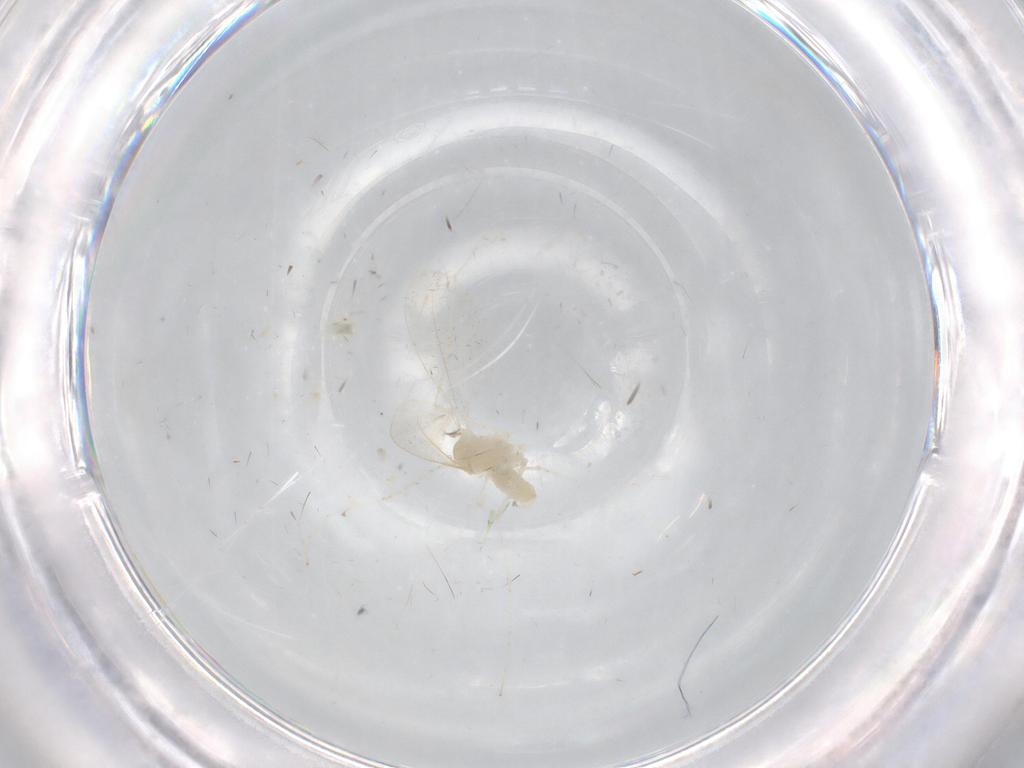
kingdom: Animalia
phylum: Arthropoda
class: Insecta
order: Diptera
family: Cecidomyiidae
